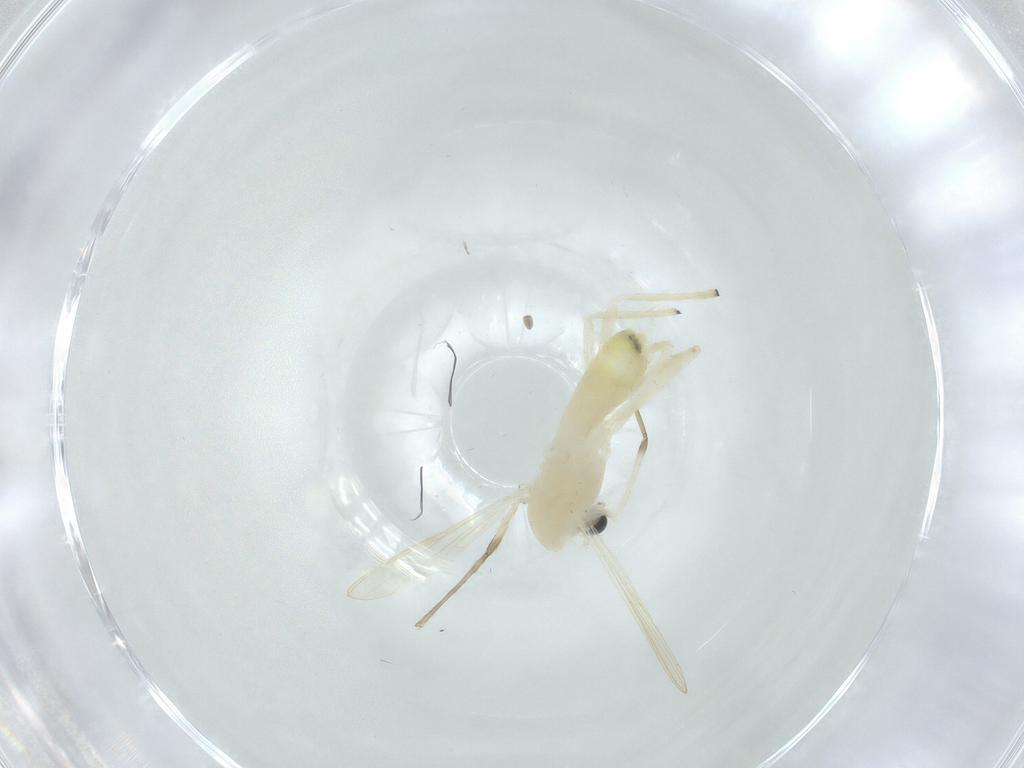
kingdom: Animalia
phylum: Arthropoda
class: Insecta
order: Diptera
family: Chironomidae
